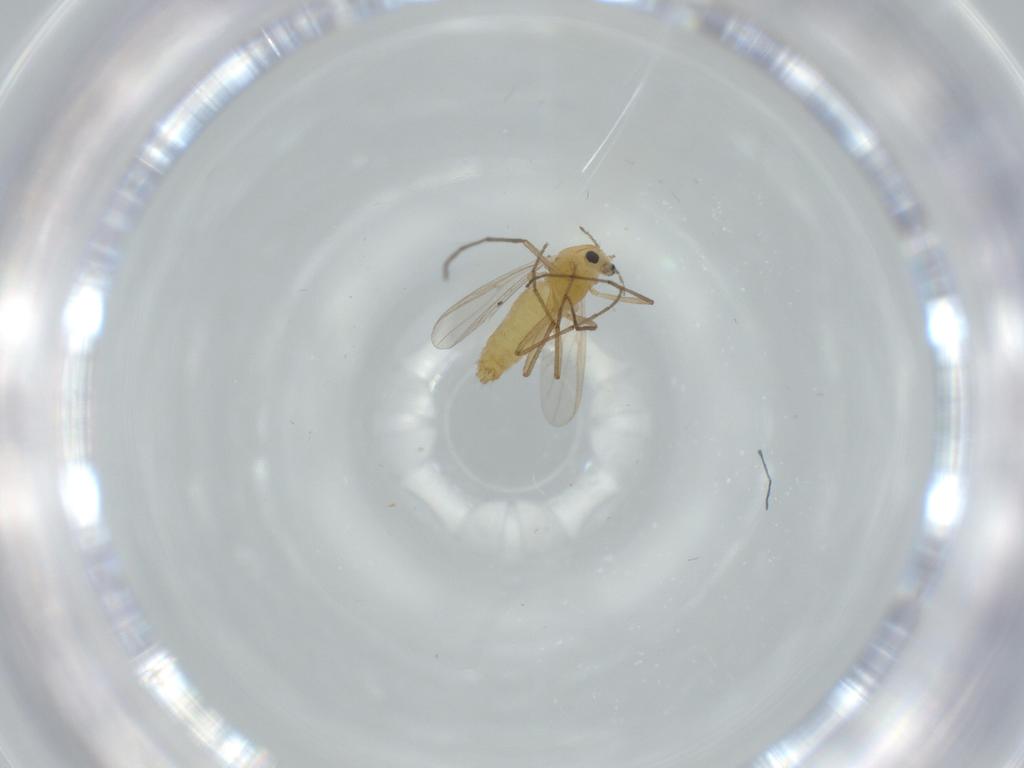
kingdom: Animalia
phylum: Arthropoda
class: Insecta
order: Diptera
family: Chironomidae
